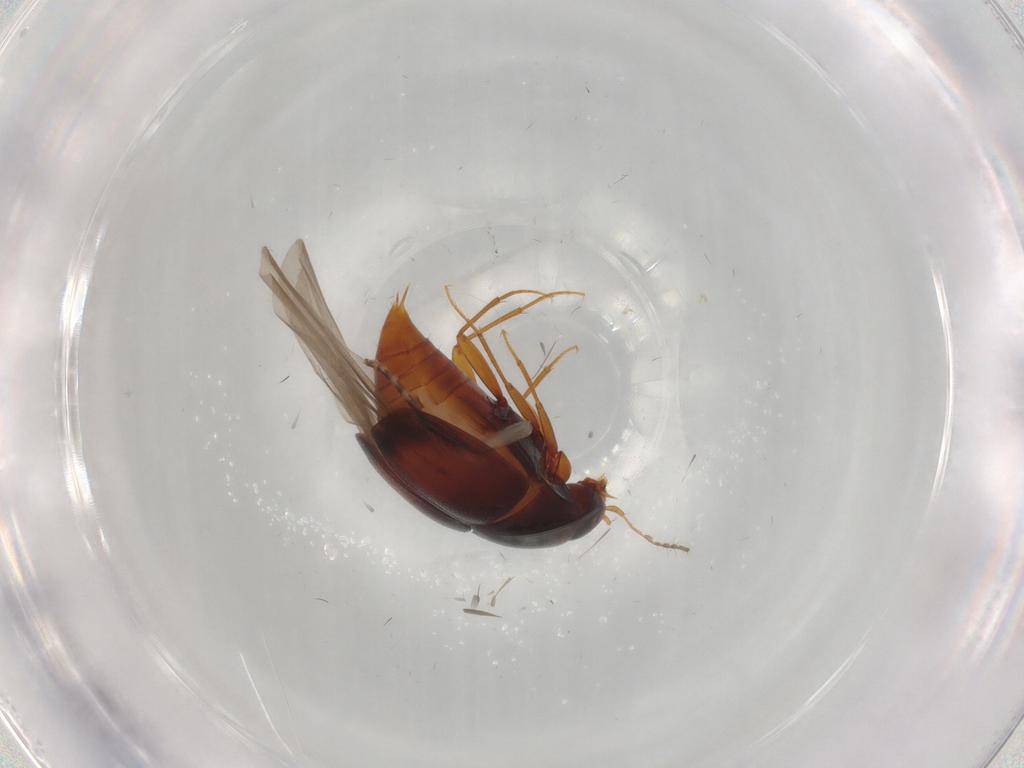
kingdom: Animalia
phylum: Arthropoda
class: Insecta
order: Coleoptera
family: Staphylinidae
